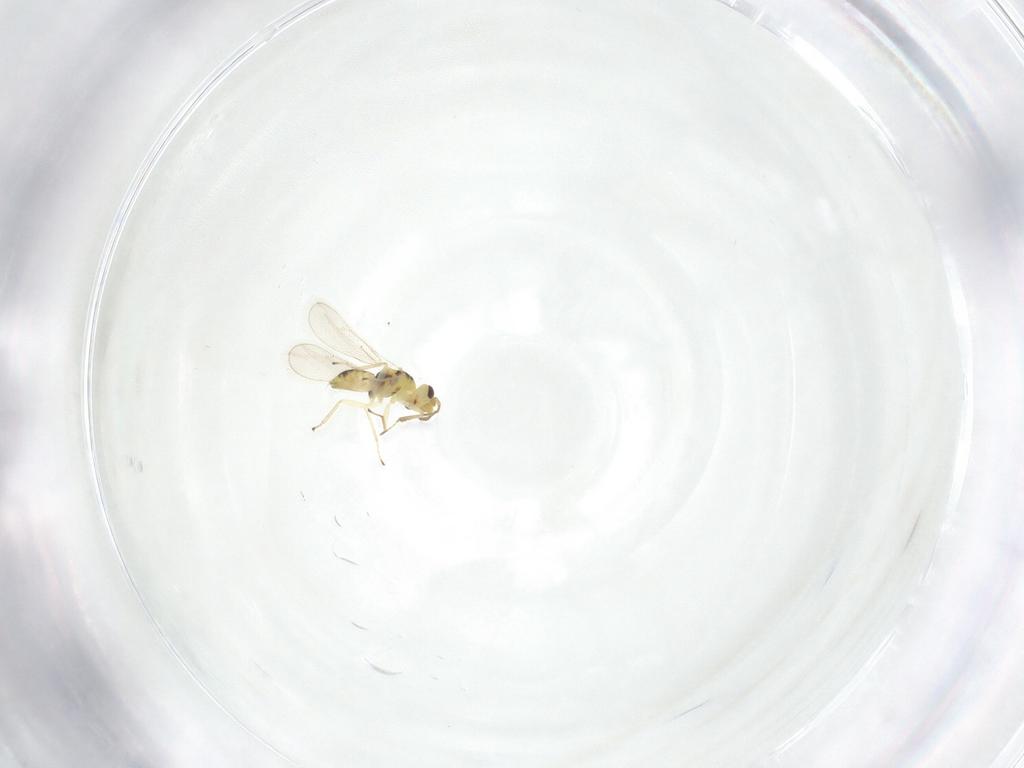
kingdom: Animalia
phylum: Arthropoda
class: Insecta
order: Hymenoptera
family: Eulophidae
